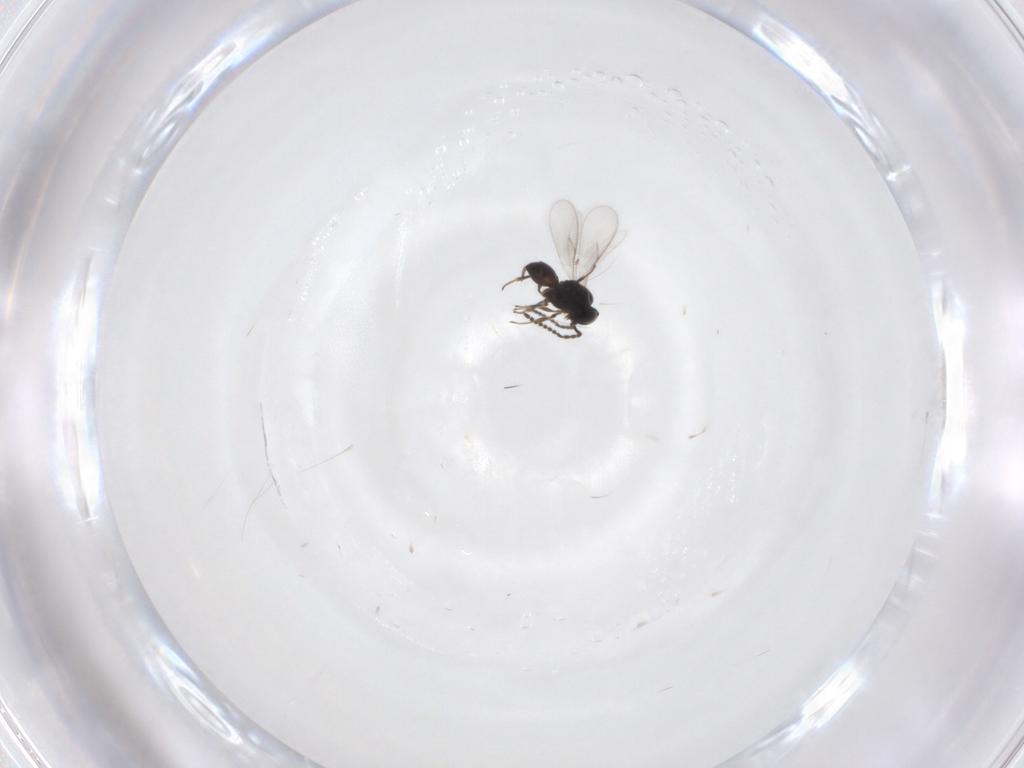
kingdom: Animalia
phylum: Arthropoda
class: Insecta
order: Hymenoptera
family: Scelionidae
